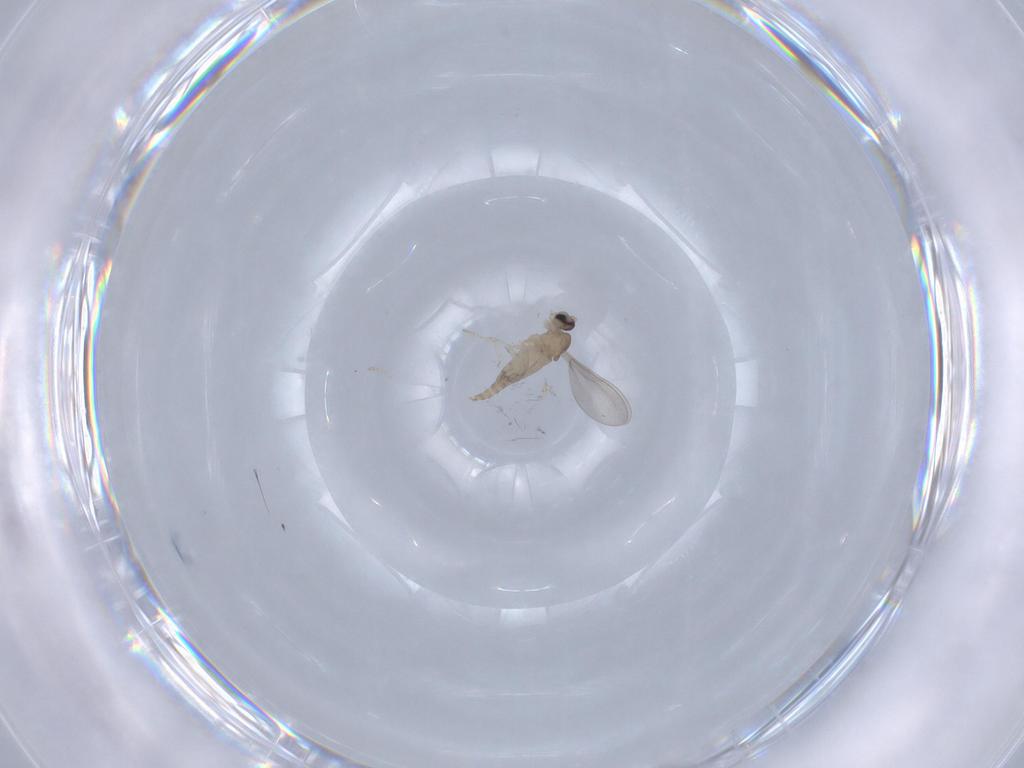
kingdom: Animalia
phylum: Arthropoda
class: Insecta
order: Diptera
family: Cecidomyiidae
